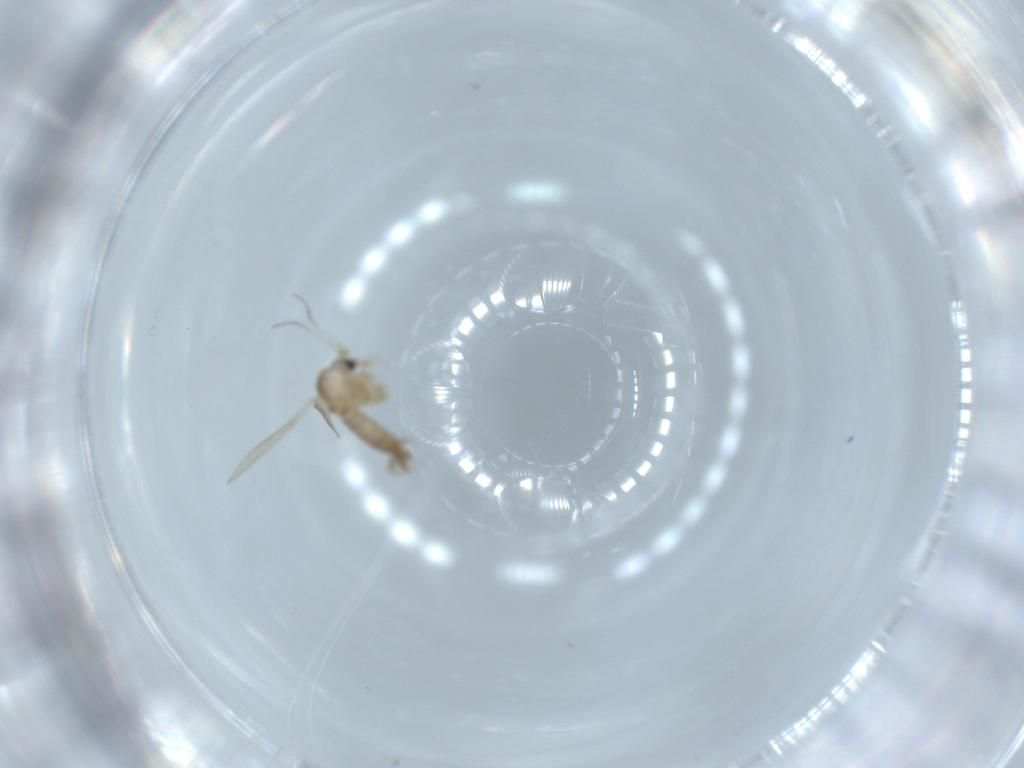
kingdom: Animalia
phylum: Arthropoda
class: Insecta
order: Diptera
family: Psychodidae
